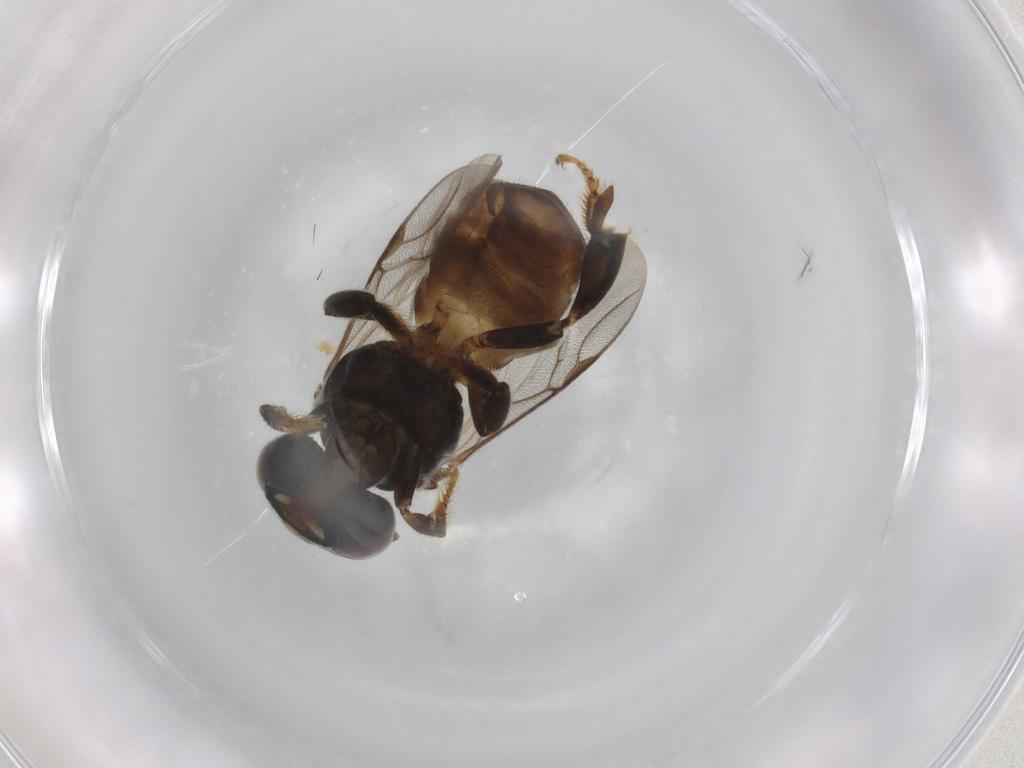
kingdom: Animalia
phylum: Arthropoda
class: Insecta
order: Hymenoptera
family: Apidae
